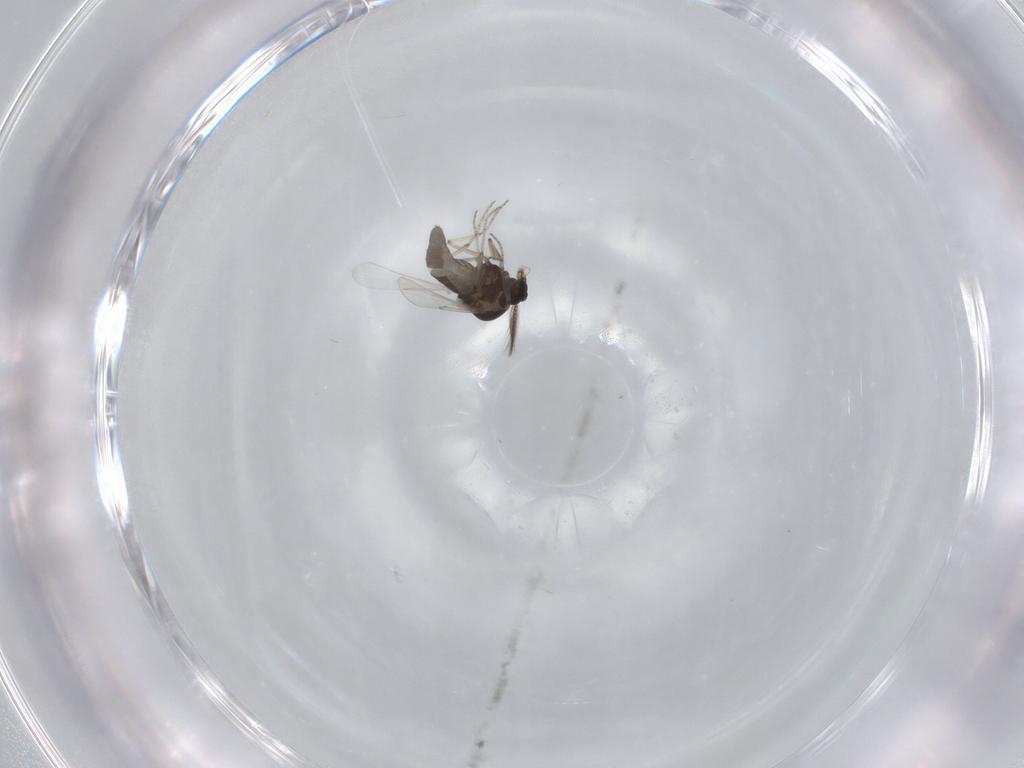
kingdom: Animalia
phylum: Arthropoda
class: Insecta
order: Diptera
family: Ceratopogonidae
